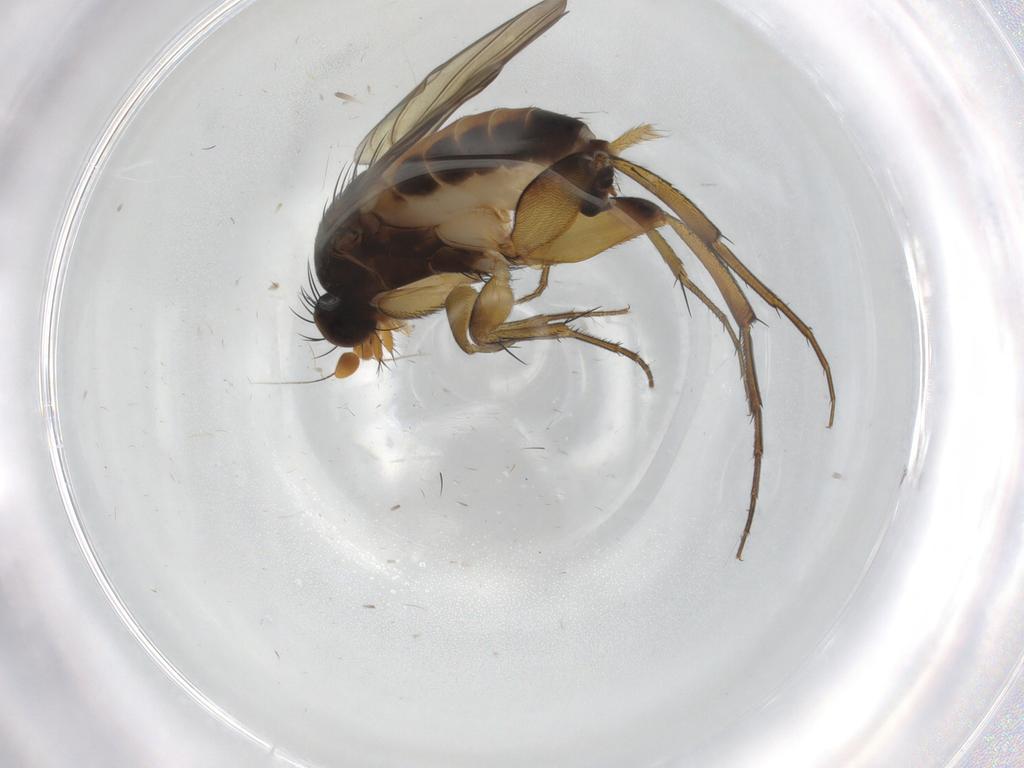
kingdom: Animalia
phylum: Arthropoda
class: Insecta
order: Diptera
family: Phoridae
